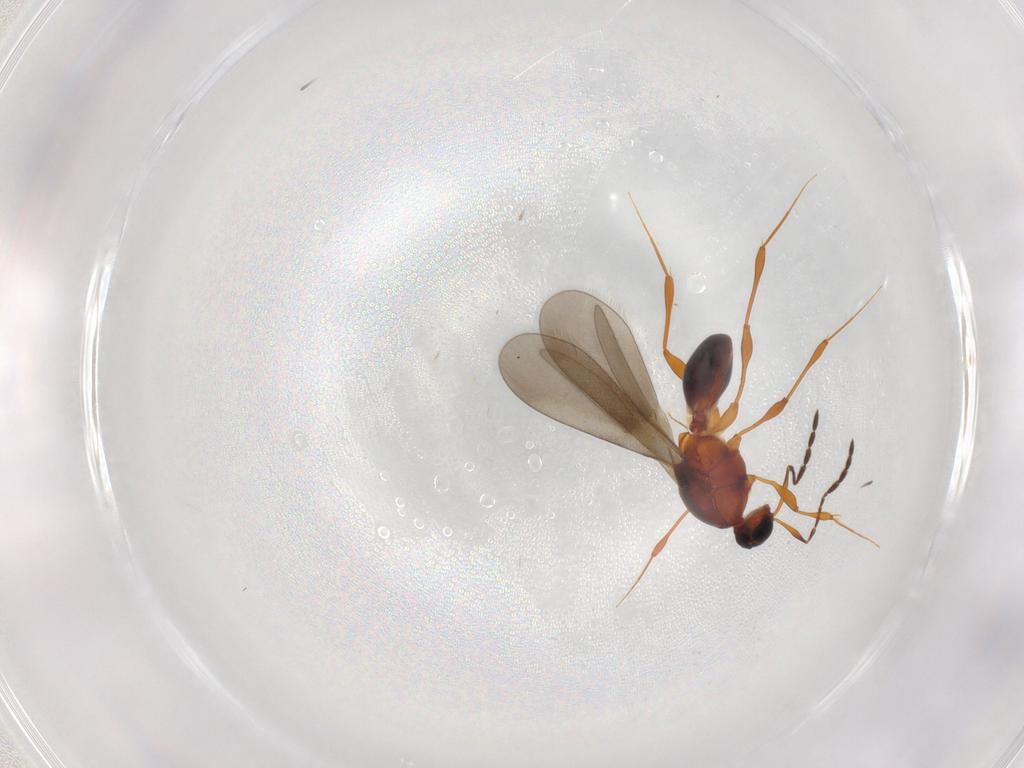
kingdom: Animalia
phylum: Arthropoda
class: Insecta
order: Hymenoptera
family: Platygastridae
